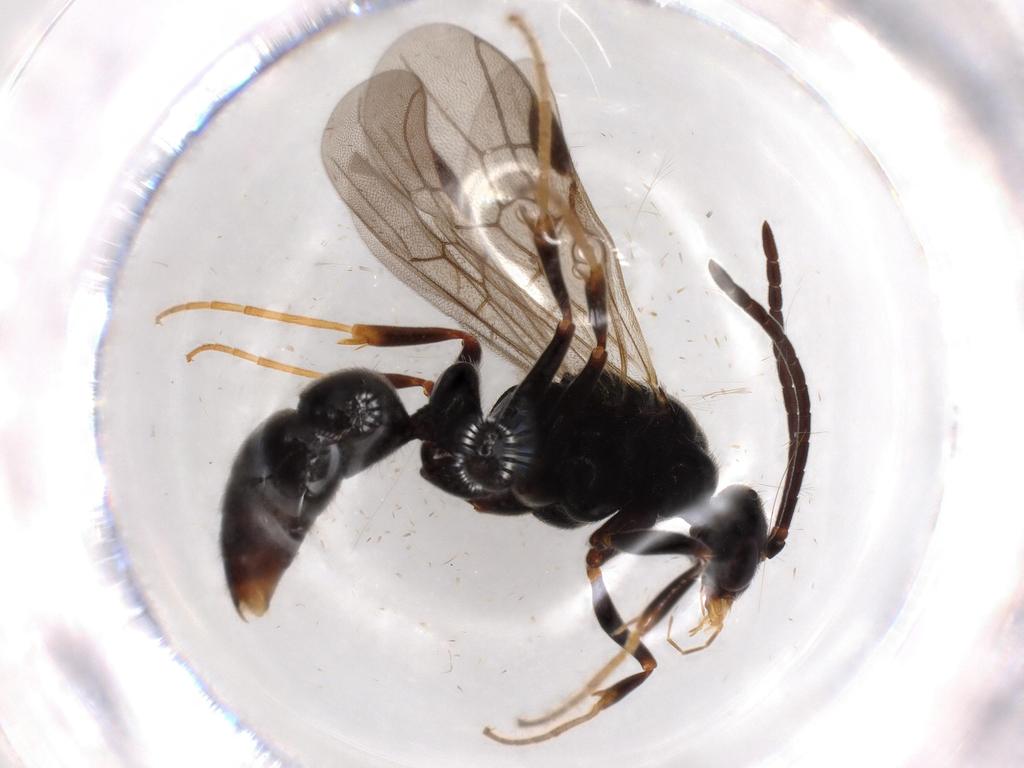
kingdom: Animalia
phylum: Arthropoda
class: Insecta
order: Hymenoptera
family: Formicidae
